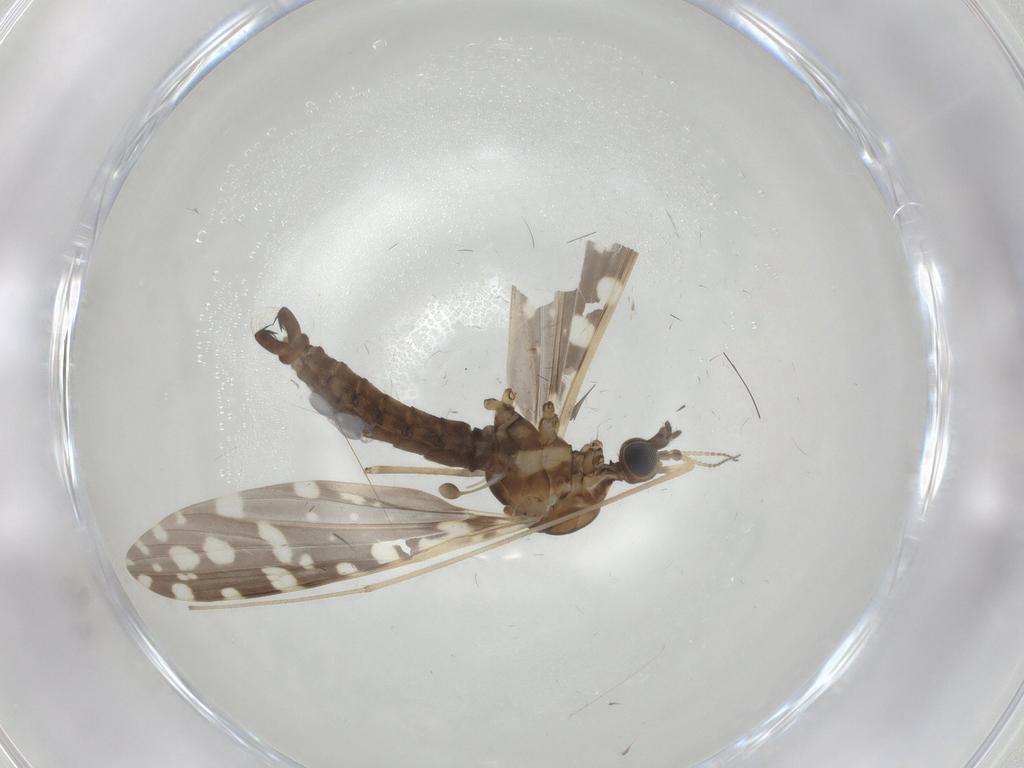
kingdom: Animalia
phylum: Arthropoda
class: Insecta
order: Diptera
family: Limoniidae
